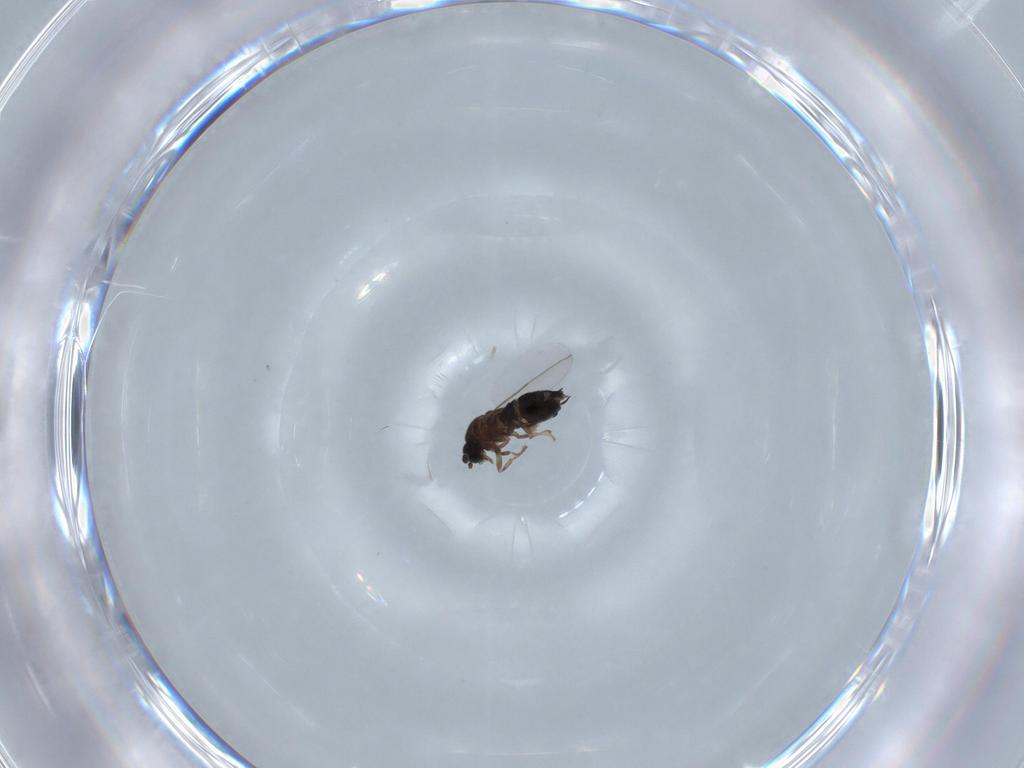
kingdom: Animalia
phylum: Arthropoda
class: Insecta
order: Diptera
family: Scatopsidae
